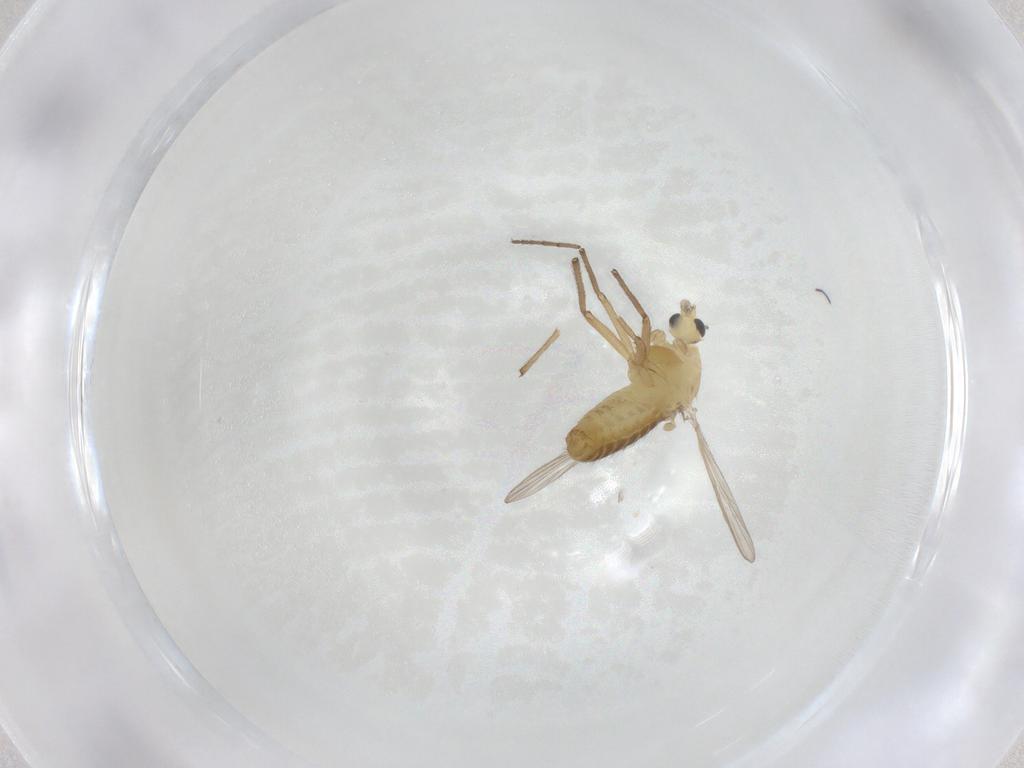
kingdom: Animalia
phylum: Arthropoda
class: Insecta
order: Diptera
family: Chironomidae
